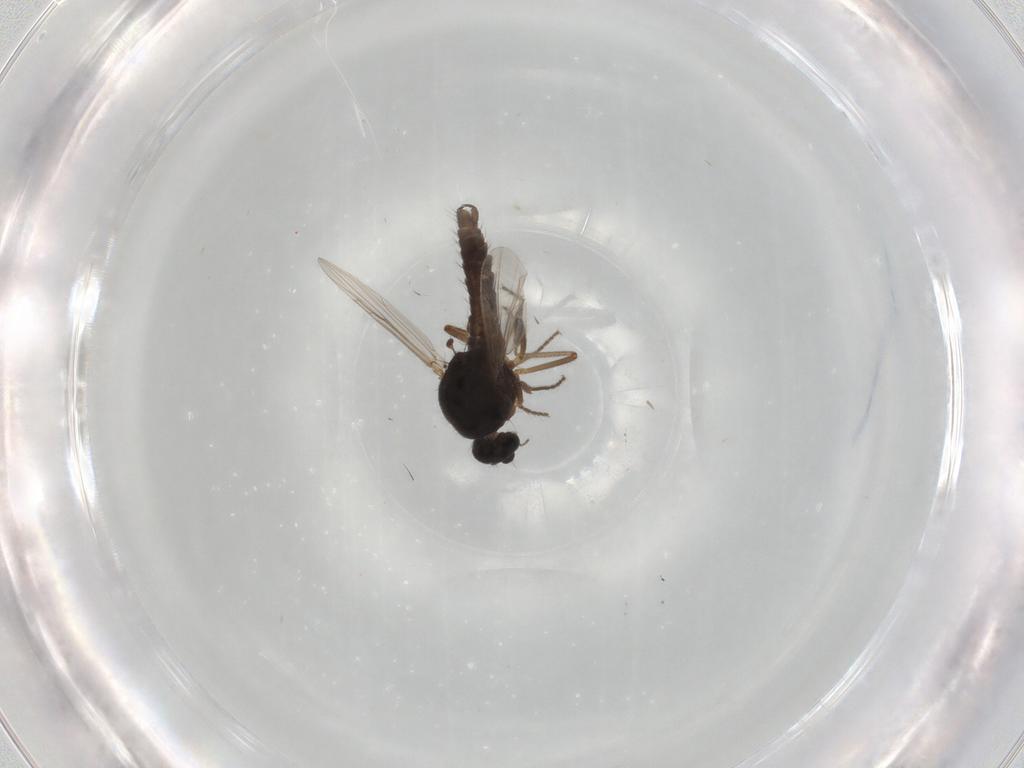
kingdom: Animalia
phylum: Arthropoda
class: Insecta
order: Diptera
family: Ceratopogonidae
